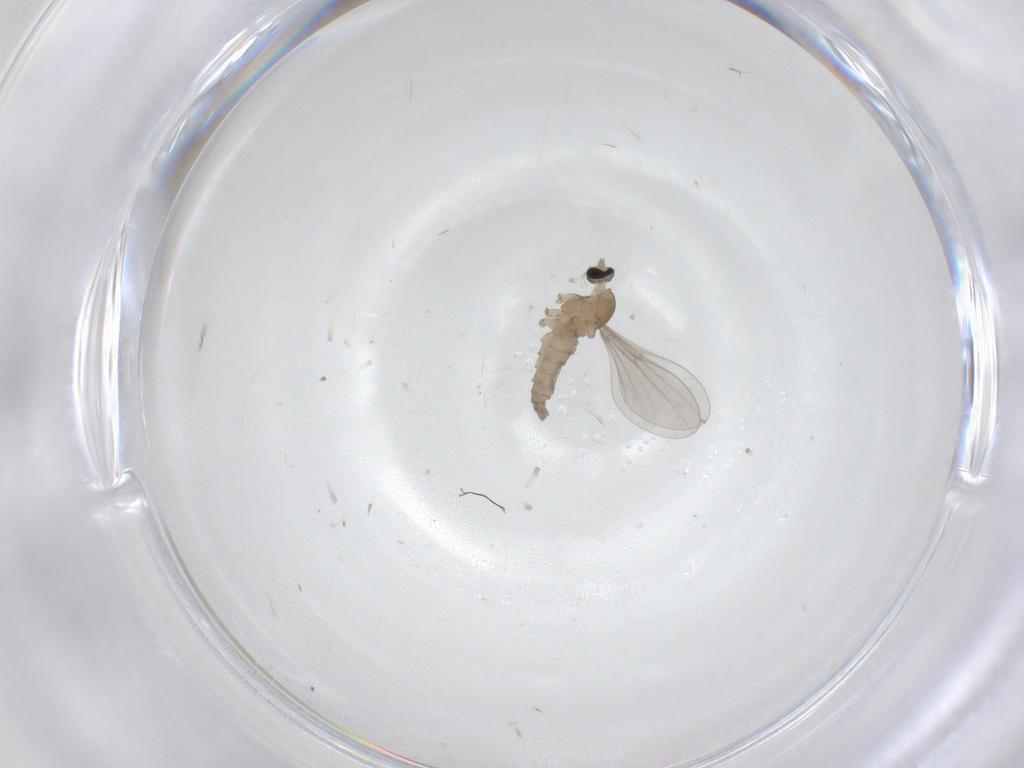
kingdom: Animalia
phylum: Arthropoda
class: Insecta
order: Diptera
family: Cecidomyiidae
